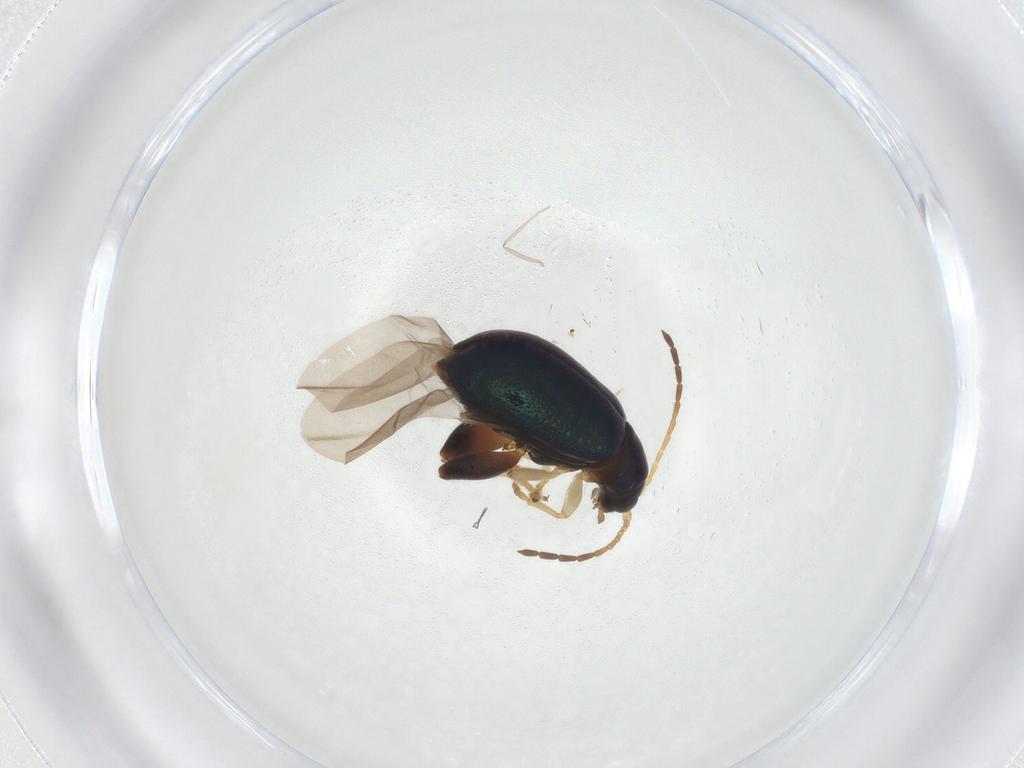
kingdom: Animalia
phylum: Arthropoda
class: Insecta
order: Coleoptera
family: Chrysomelidae
